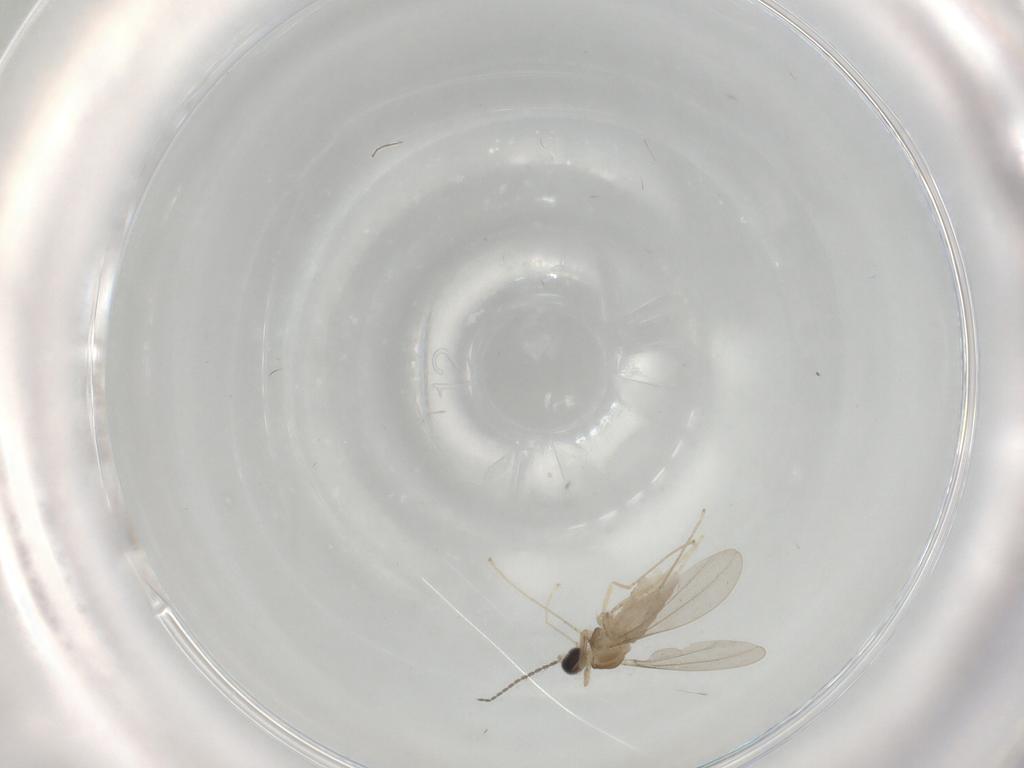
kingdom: Animalia
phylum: Arthropoda
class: Insecta
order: Diptera
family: Cecidomyiidae
